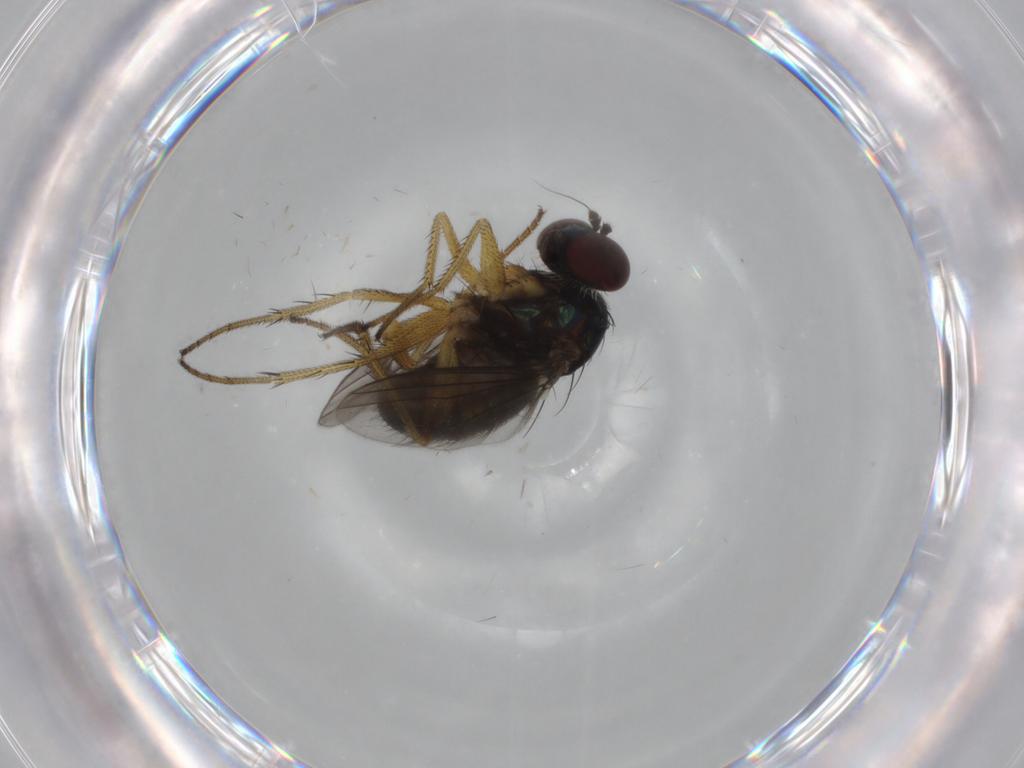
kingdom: Animalia
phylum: Arthropoda
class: Insecta
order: Diptera
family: Dolichopodidae
